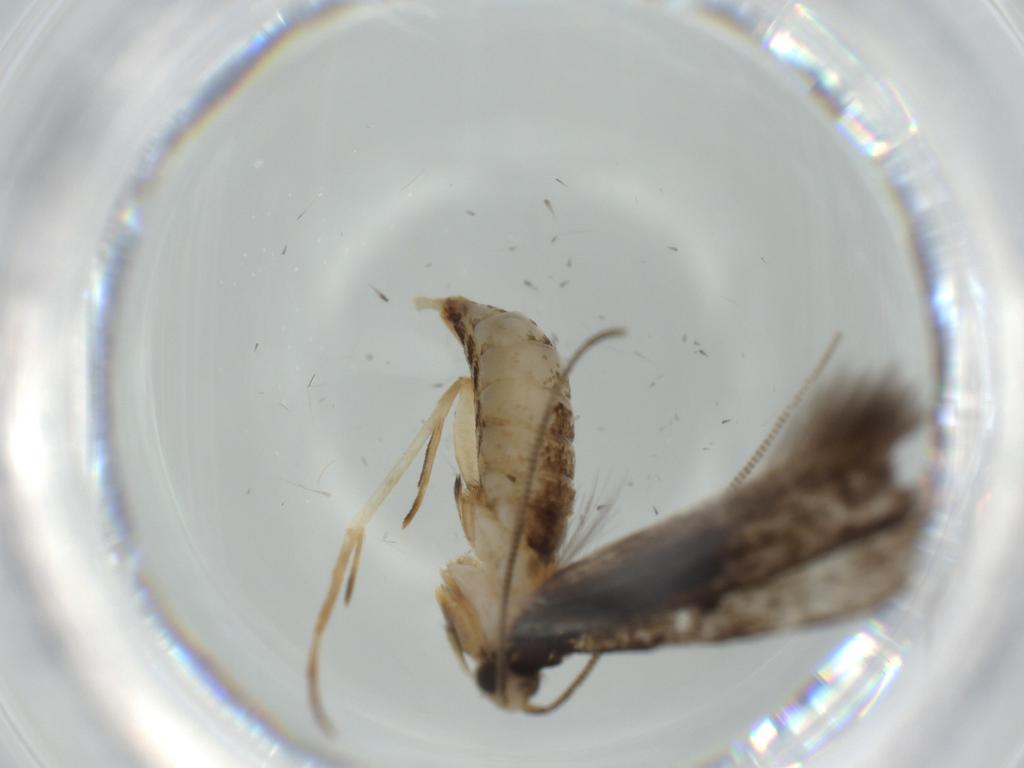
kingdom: Animalia
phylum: Arthropoda
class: Insecta
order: Lepidoptera
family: Tineidae
